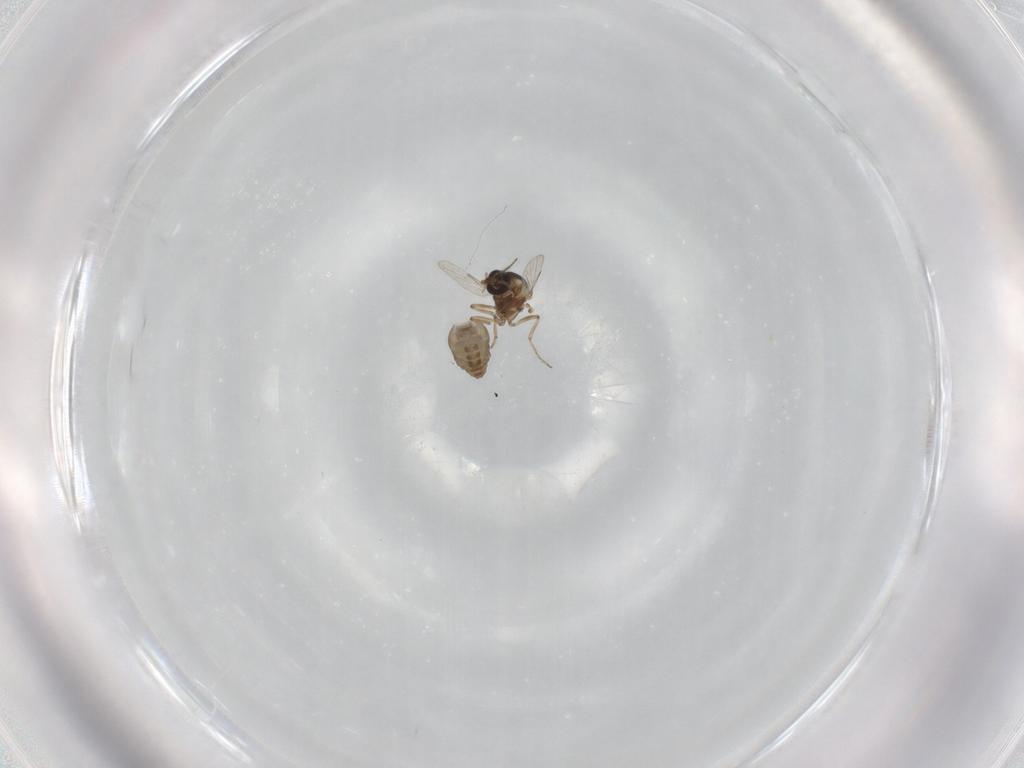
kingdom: Animalia
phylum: Arthropoda
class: Insecta
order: Diptera
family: Ceratopogonidae
